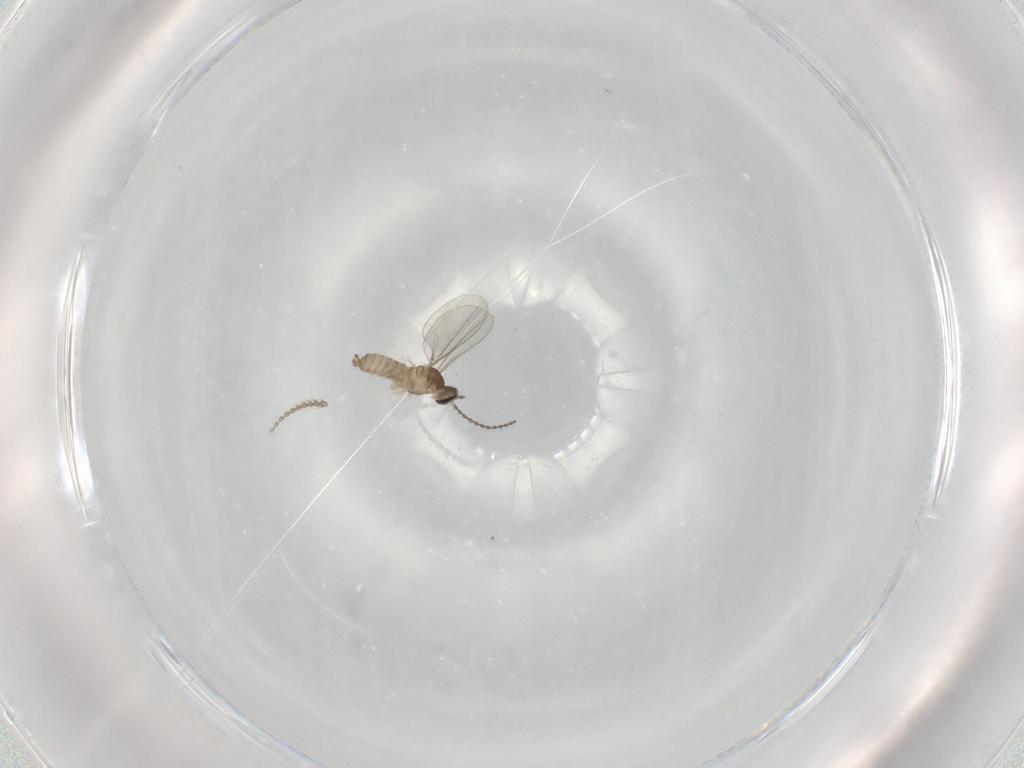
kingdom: Animalia
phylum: Arthropoda
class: Insecta
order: Diptera
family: Cecidomyiidae
